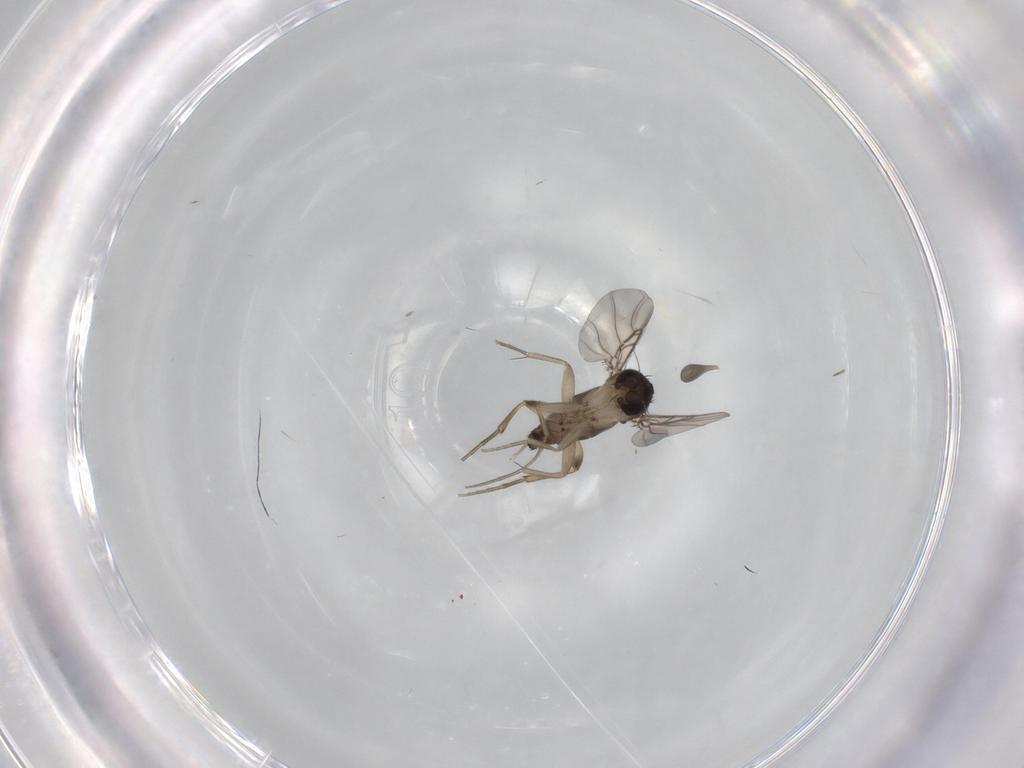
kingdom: Animalia
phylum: Arthropoda
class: Insecta
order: Diptera
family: Phoridae
